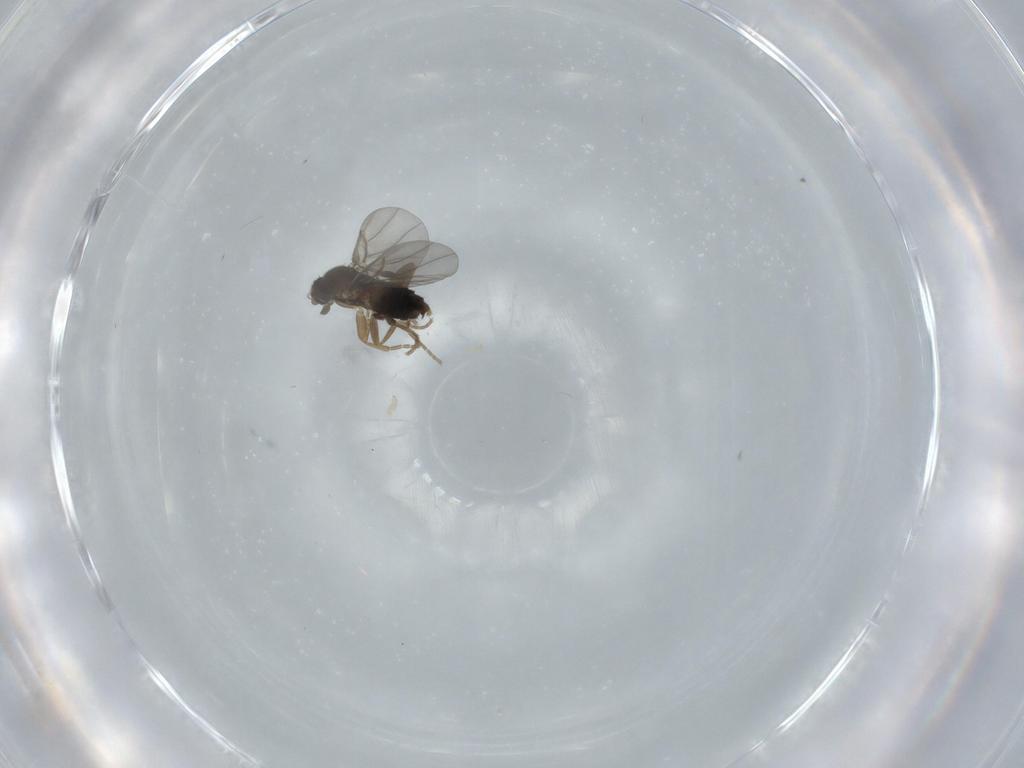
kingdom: Animalia
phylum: Arthropoda
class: Insecta
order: Diptera
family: Phoridae
